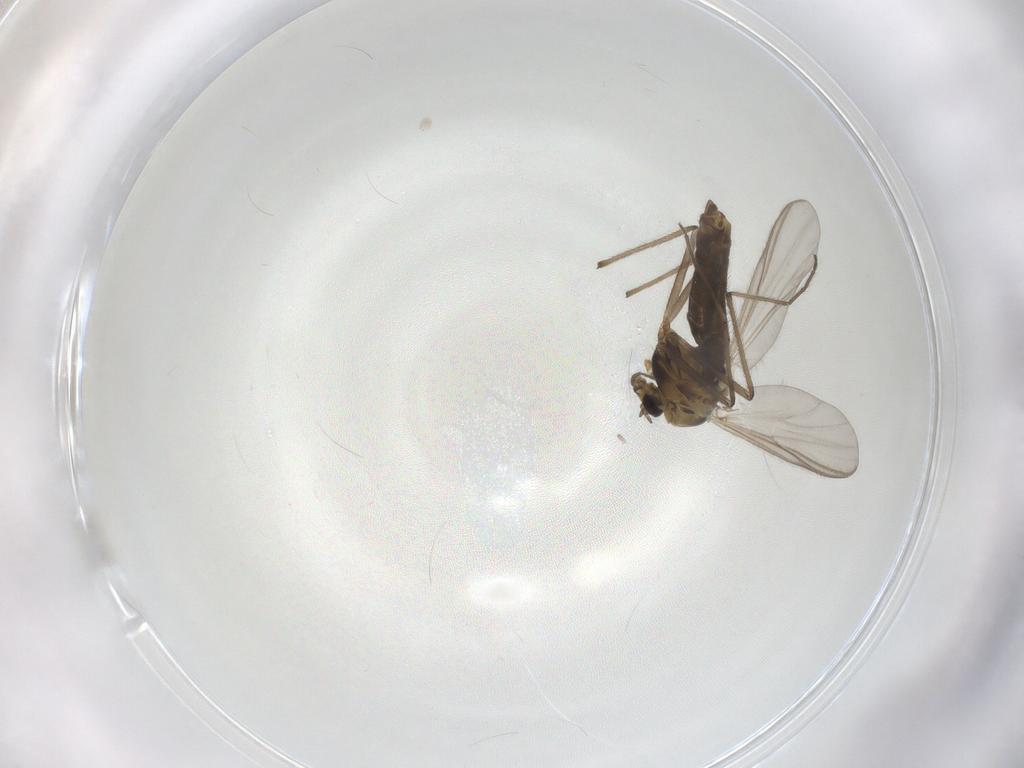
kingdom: Animalia
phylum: Arthropoda
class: Insecta
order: Diptera
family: Chironomidae
